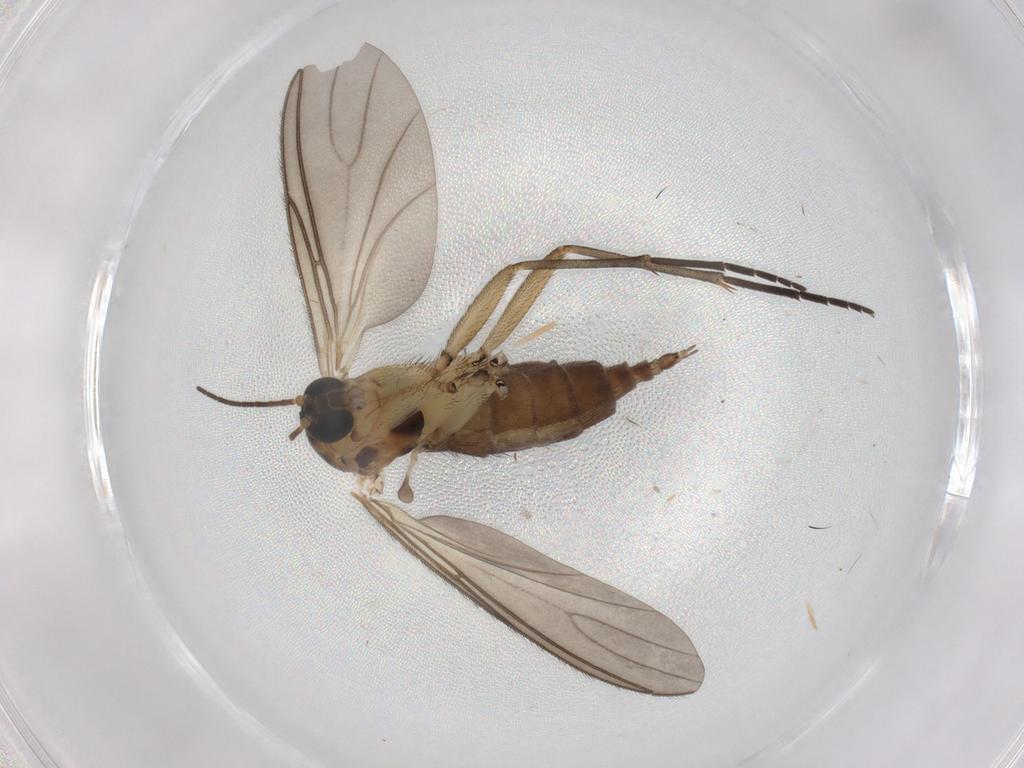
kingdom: Animalia
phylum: Arthropoda
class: Insecta
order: Diptera
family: Sciaridae
